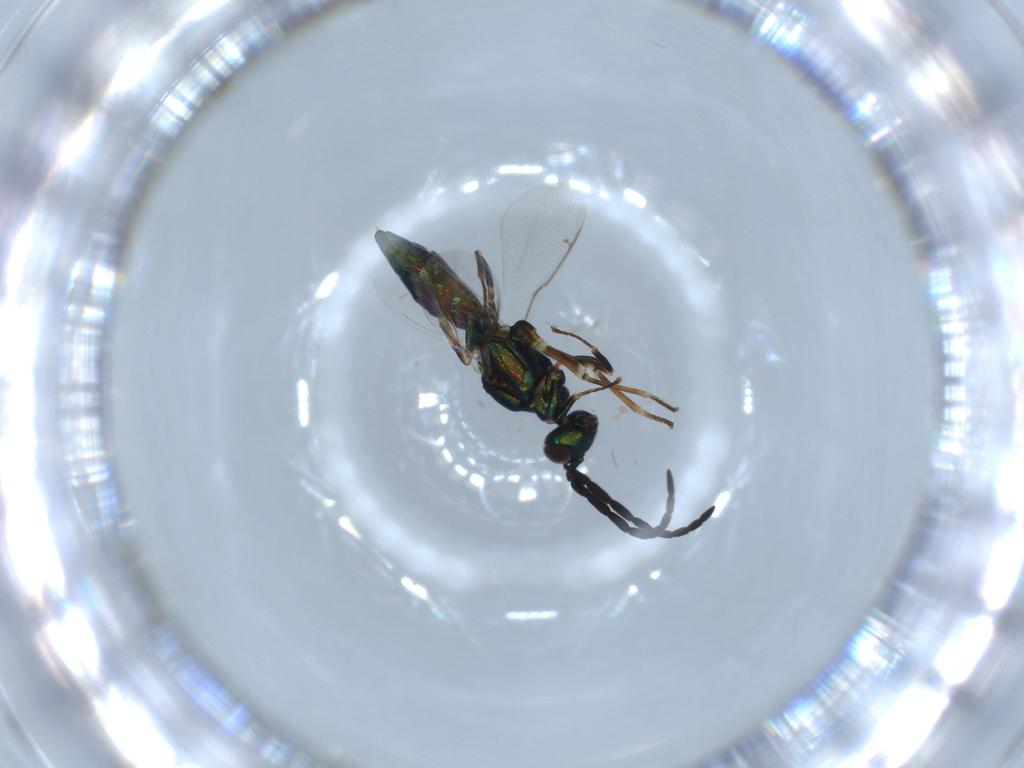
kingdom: Animalia
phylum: Arthropoda
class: Insecta
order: Hymenoptera
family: Eupelmidae
